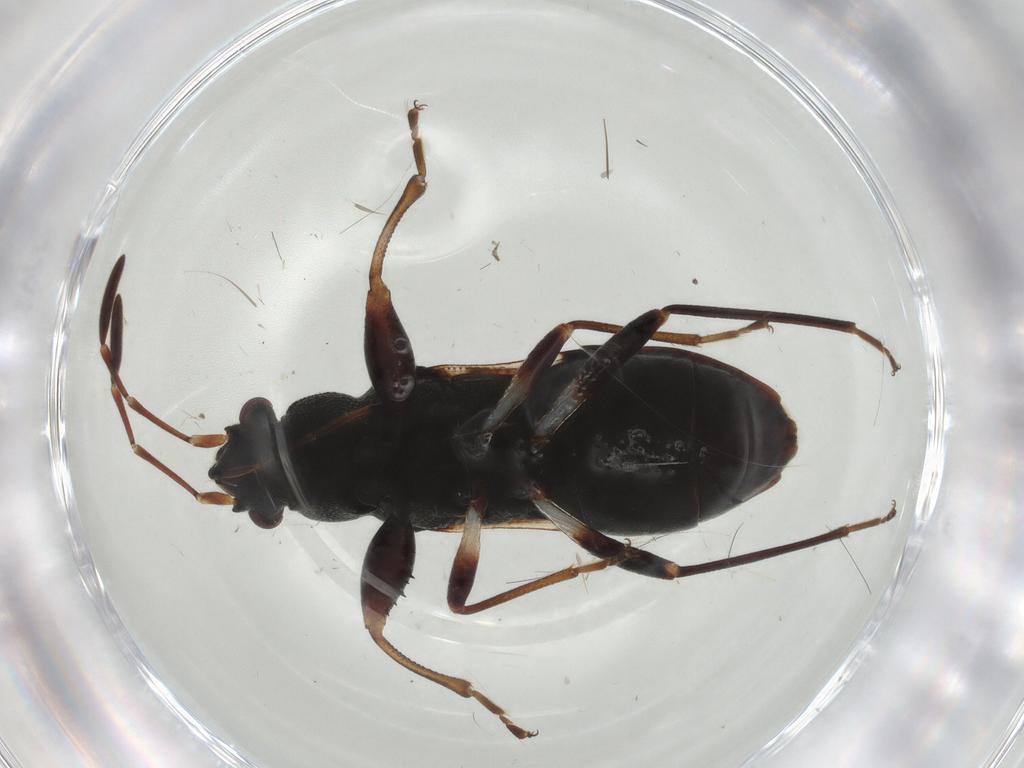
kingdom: Animalia
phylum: Arthropoda
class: Insecta
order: Hemiptera
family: Rhyparochromidae
